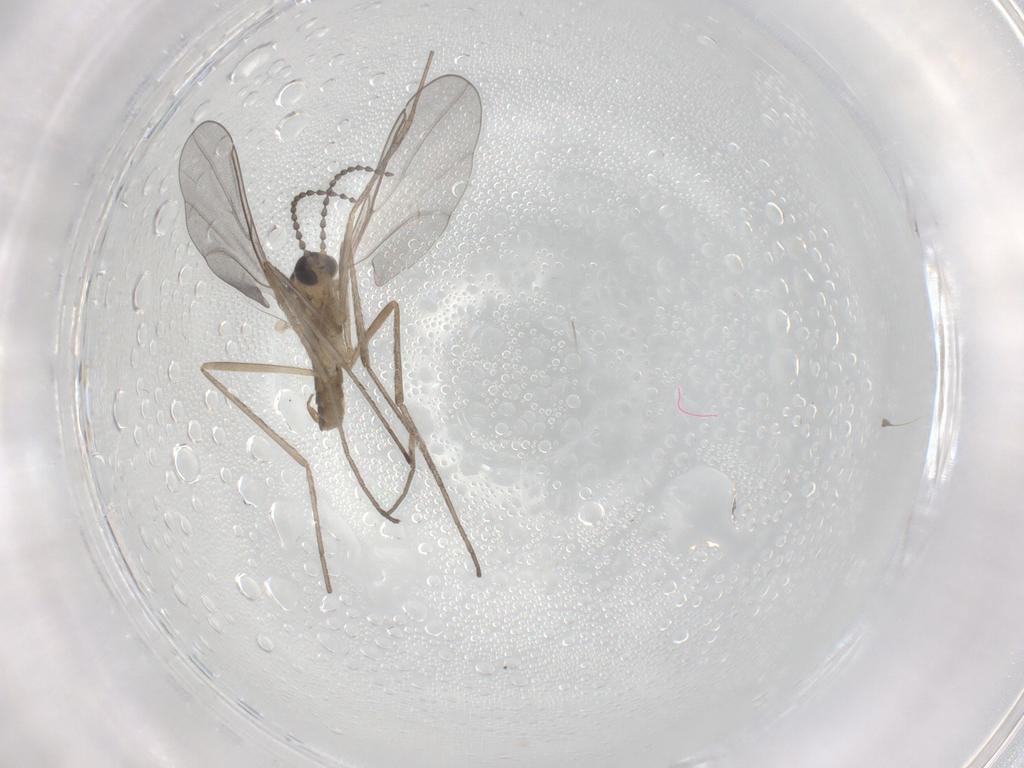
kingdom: Animalia
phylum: Arthropoda
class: Insecta
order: Diptera
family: Cecidomyiidae
